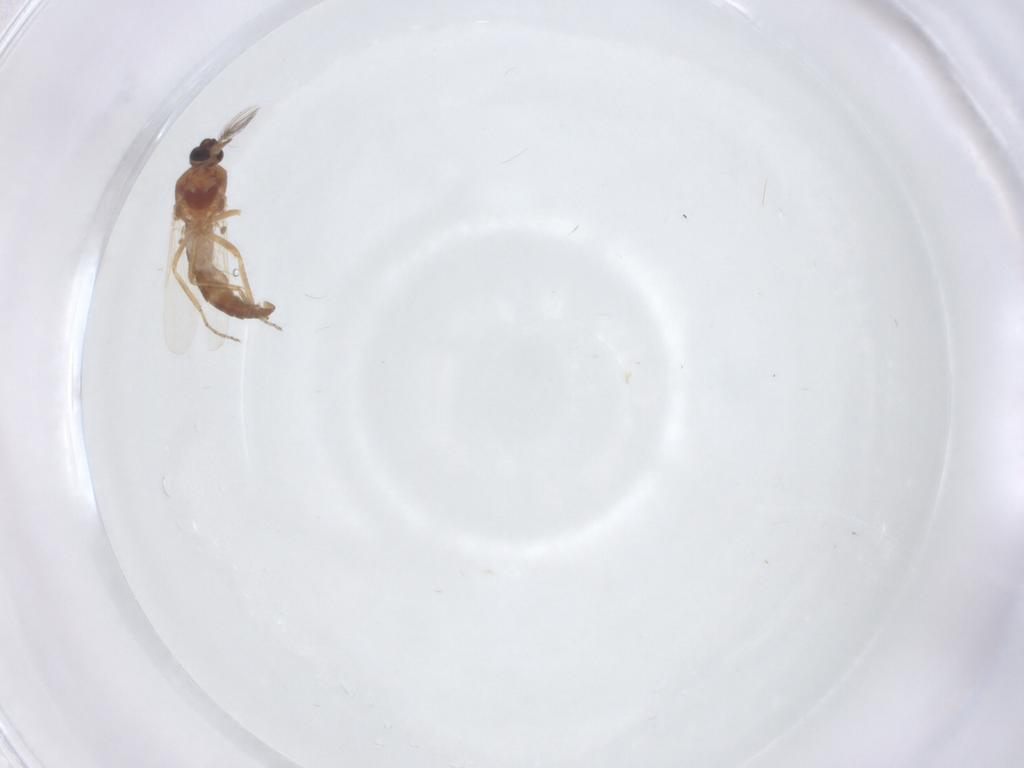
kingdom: Animalia
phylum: Arthropoda
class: Insecta
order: Diptera
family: Ceratopogonidae
